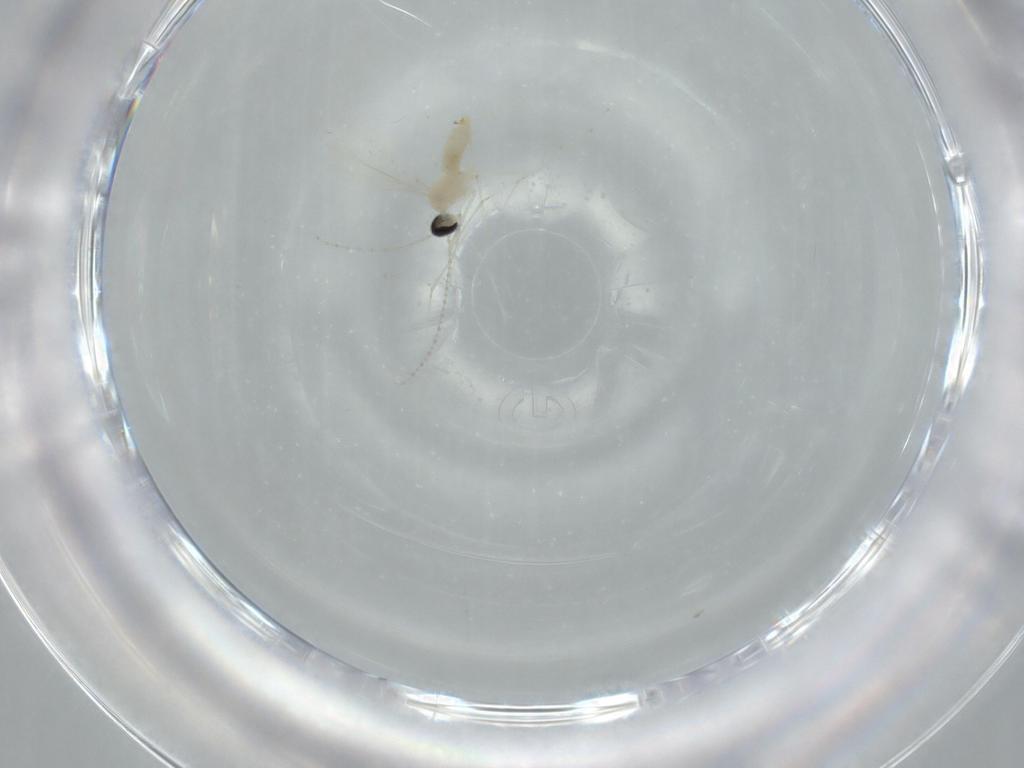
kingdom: Animalia
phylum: Arthropoda
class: Insecta
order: Diptera
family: Cecidomyiidae
